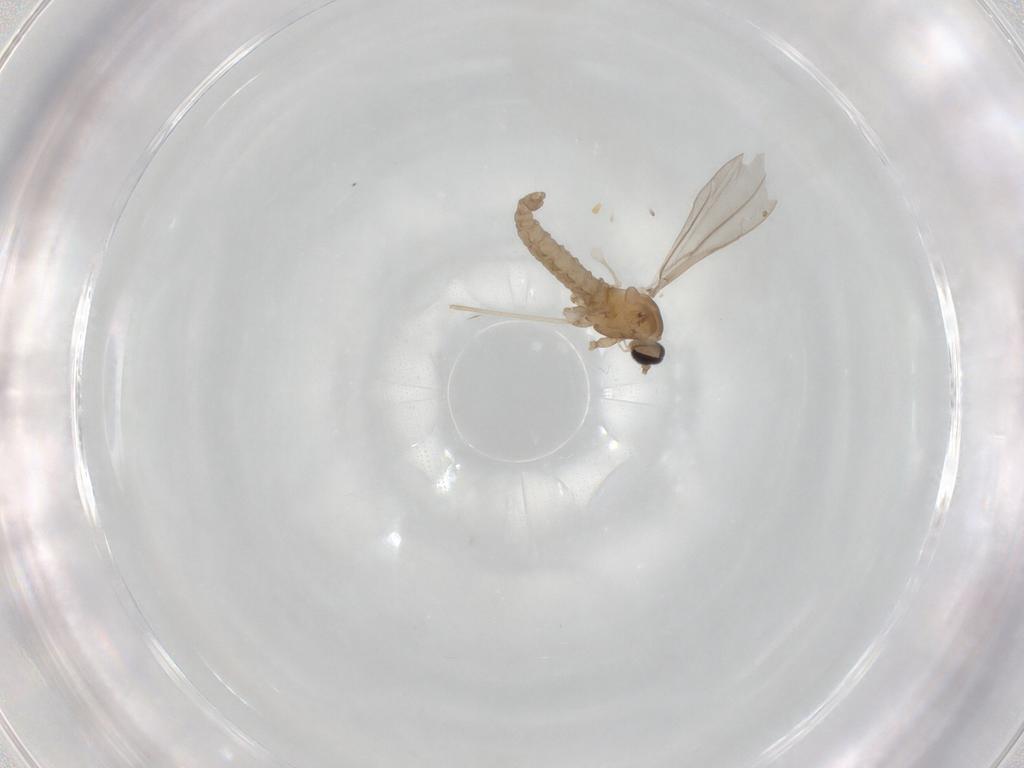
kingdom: Animalia
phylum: Arthropoda
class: Insecta
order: Diptera
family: Cecidomyiidae
